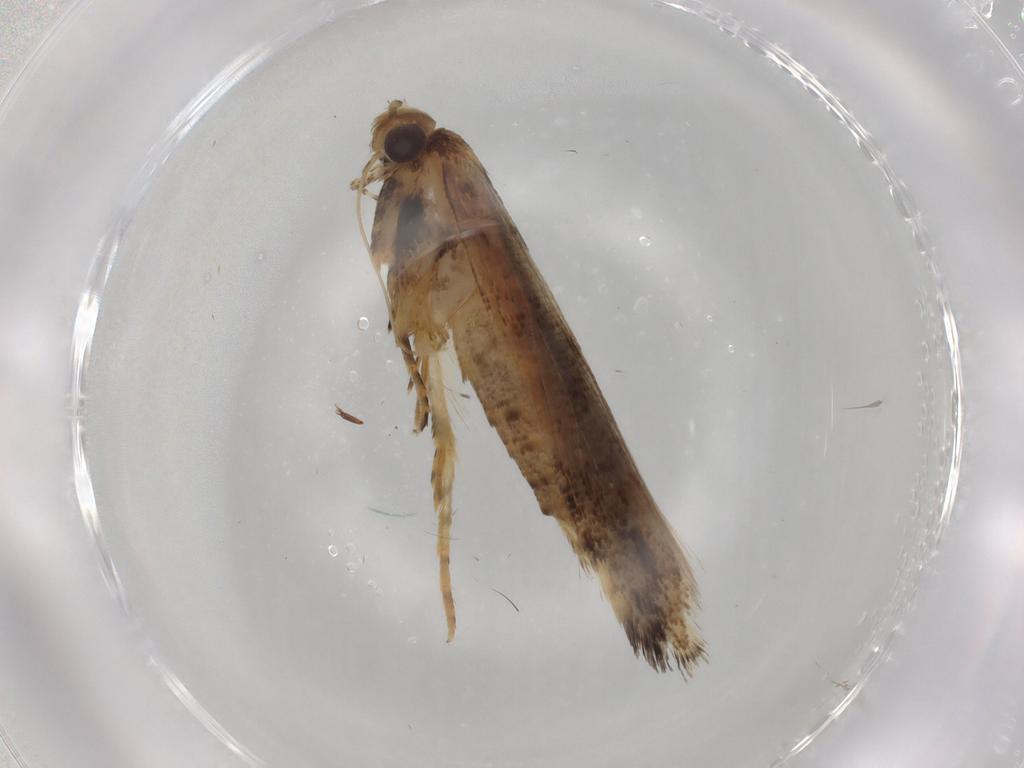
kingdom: Animalia
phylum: Arthropoda
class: Insecta
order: Lepidoptera
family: Gelechiidae
